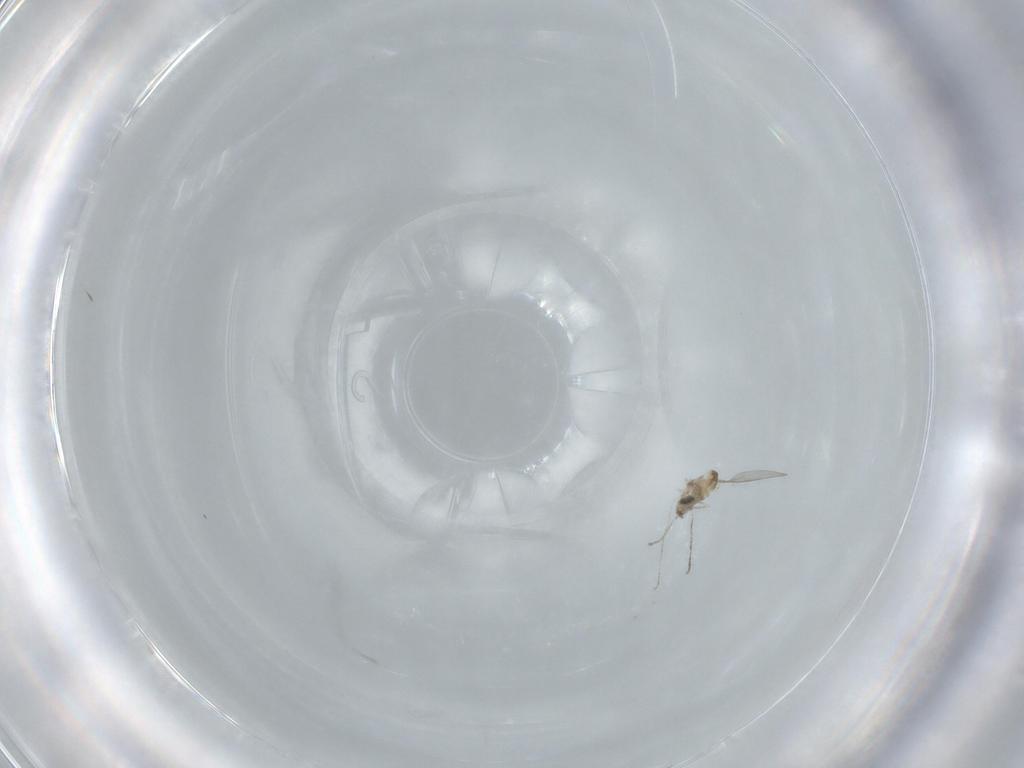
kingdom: Animalia
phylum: Arthropoda
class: Insecta
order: Diptera
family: Cecidomyiidae
